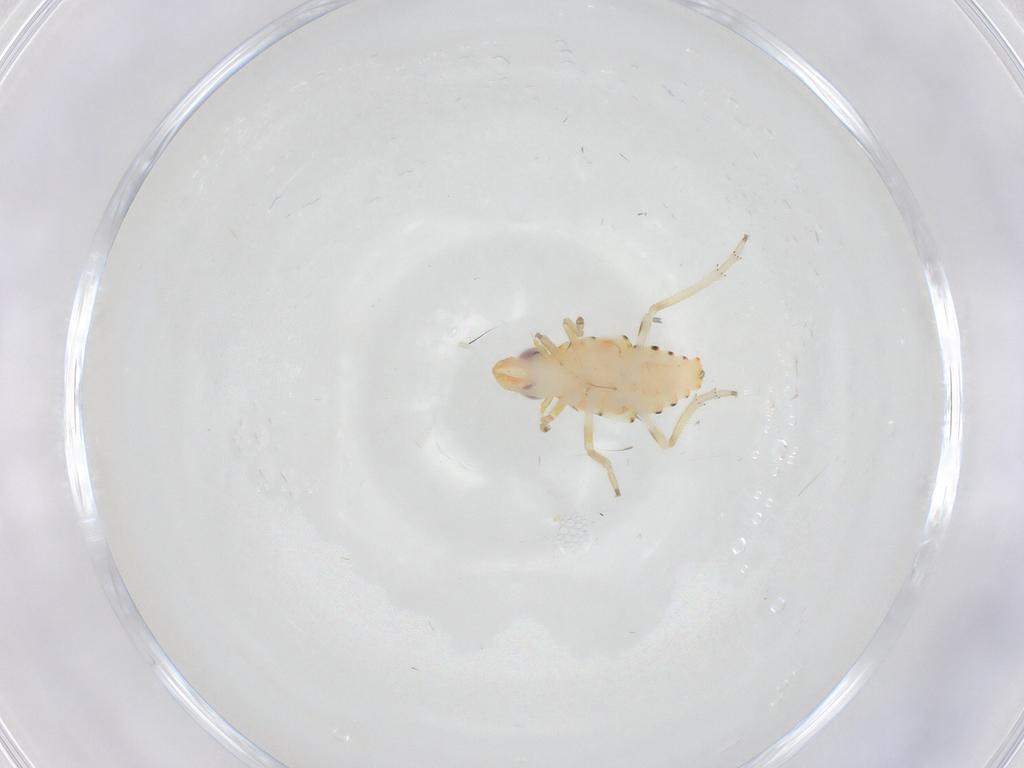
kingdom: Animalia
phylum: Arthropoda
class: Insecta
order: Hemiptera
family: Tropiduchidae
